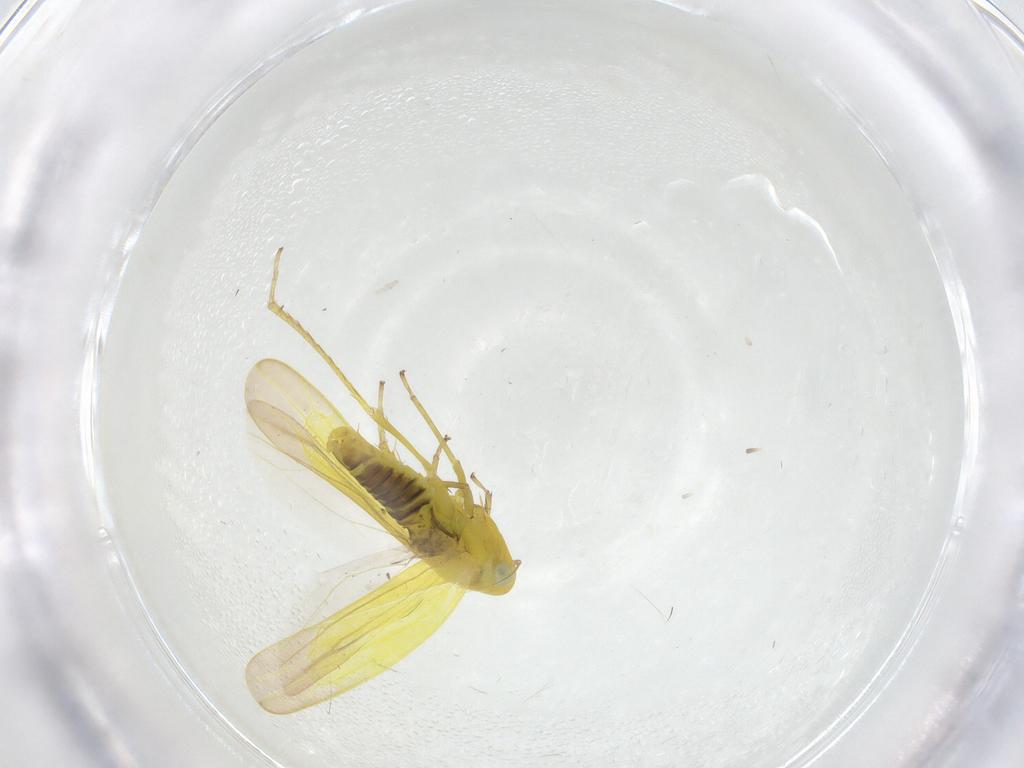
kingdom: Animalia
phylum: Arthropoda
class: Insecta
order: Hemiptera
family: Cicadellidae
